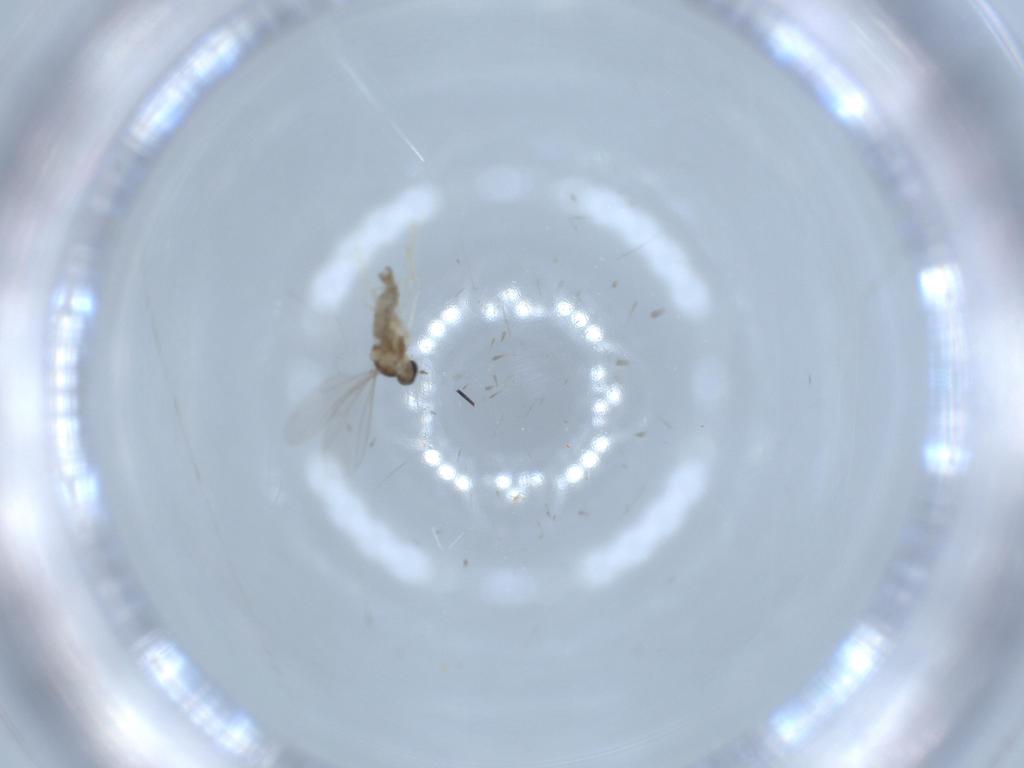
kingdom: Animalia
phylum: Arthropoda
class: Insecta
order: Diptera
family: Cecidomyiidae
